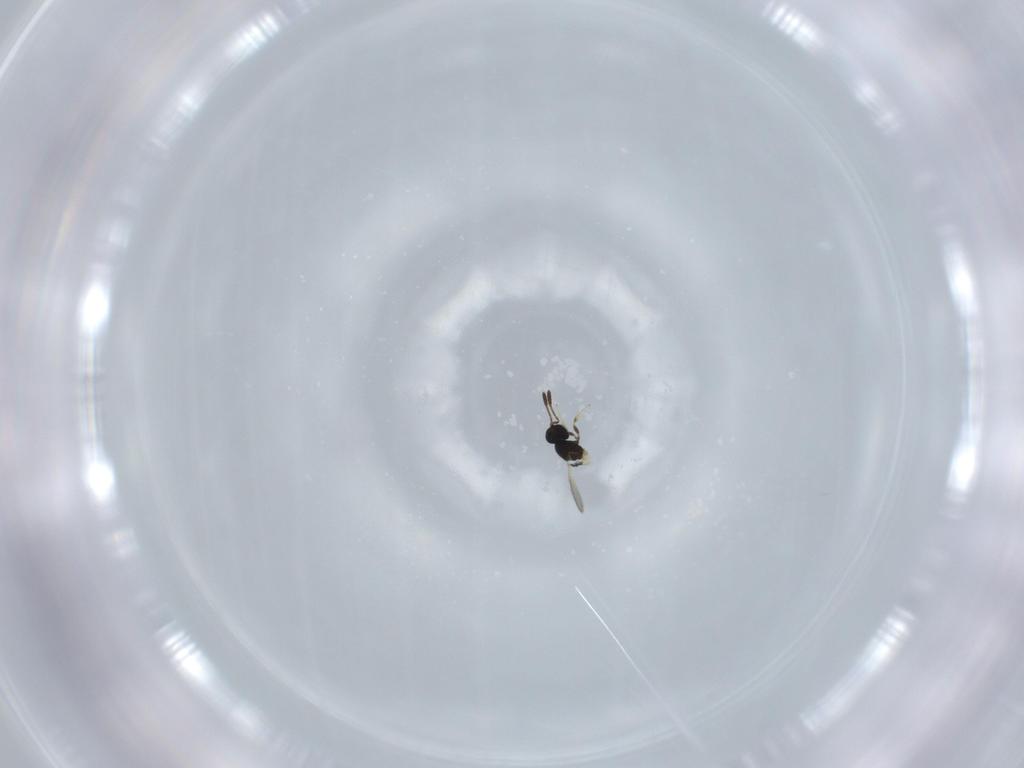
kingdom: Animalia
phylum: Arthropoda
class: Insecta
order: Hymenoptera
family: Scelionidae
